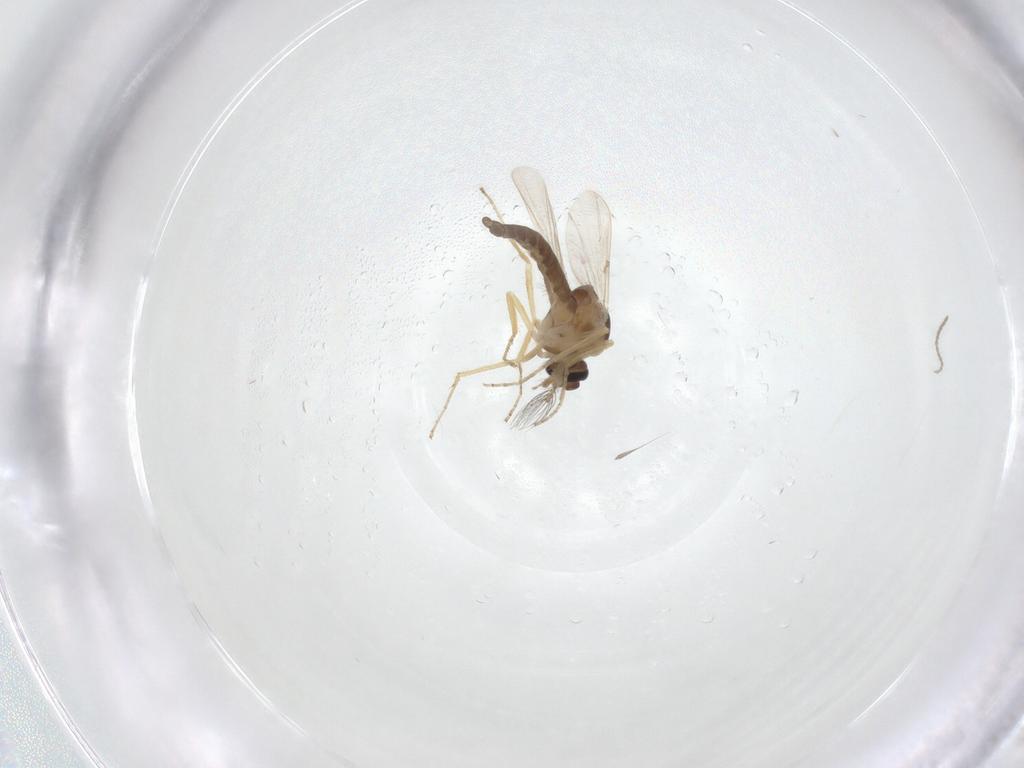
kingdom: Animalia
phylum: Arthropoda
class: Insecta
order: Diptera
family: Ceratopogonidae
